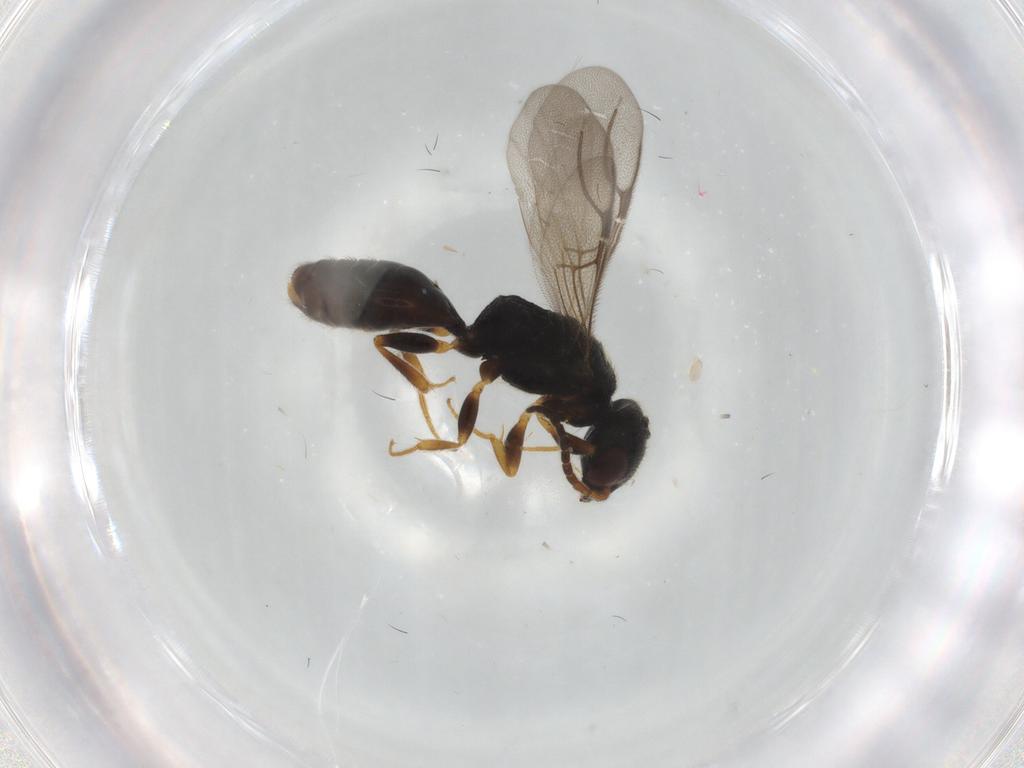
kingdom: Animalia
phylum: Arthropoda
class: Insecta
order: Hymenoptera
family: Bethylidae
